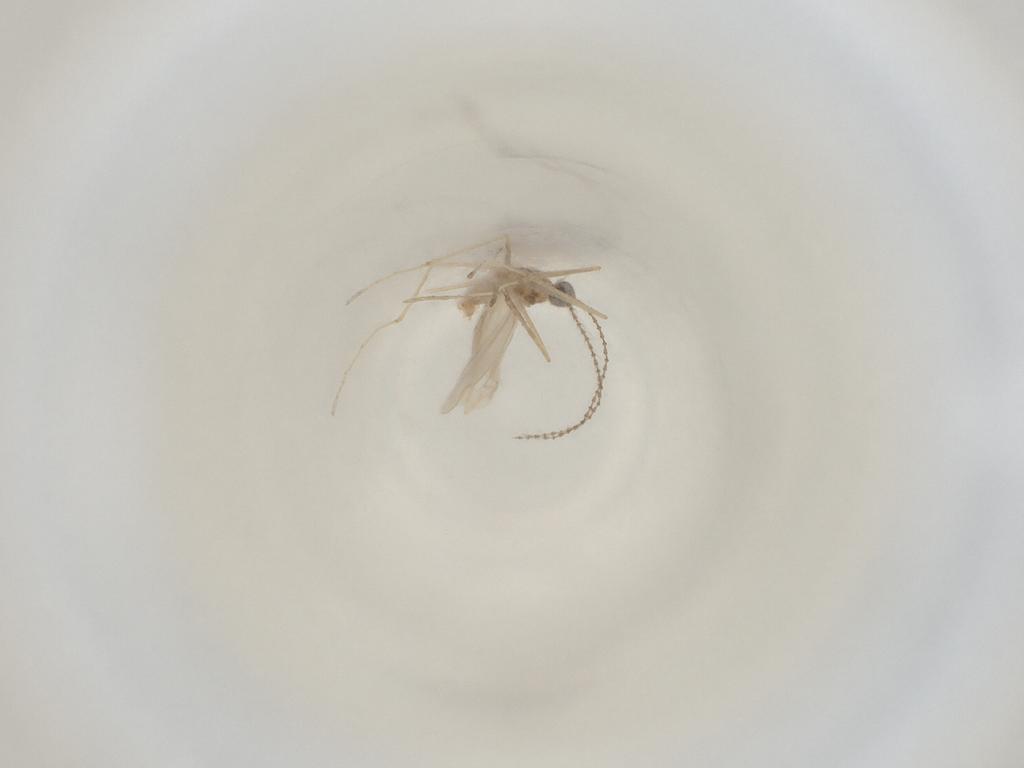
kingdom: Animalia
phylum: Arthropoda
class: Insecta
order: Diptera
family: Cecidomyiidae
